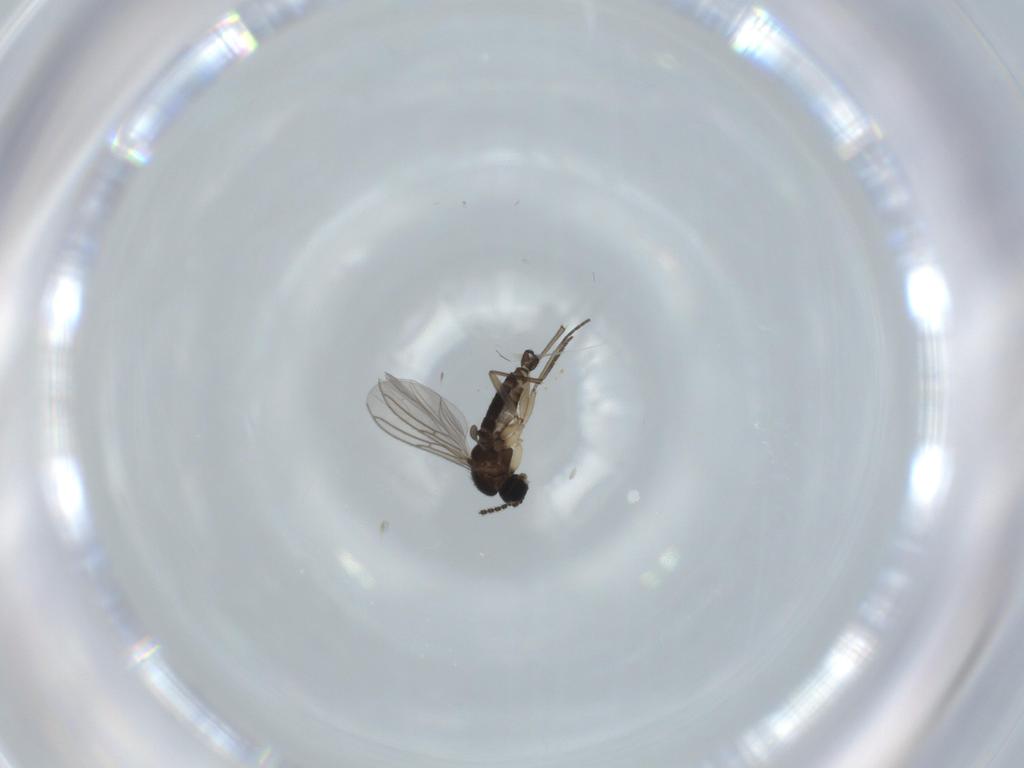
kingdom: Animalia
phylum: Arthropoda
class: Insecta
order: Diptera
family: Sciaridae
